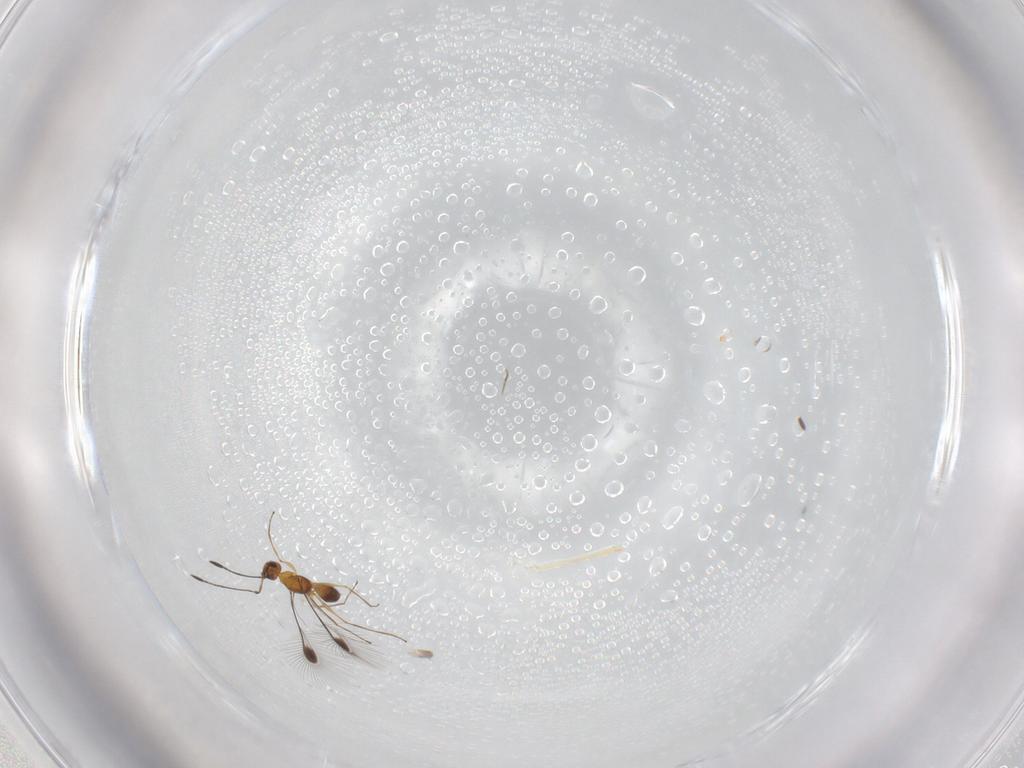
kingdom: Animalia
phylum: Arthropoda
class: Insecta
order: Hymenoptera
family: Mymaridae
